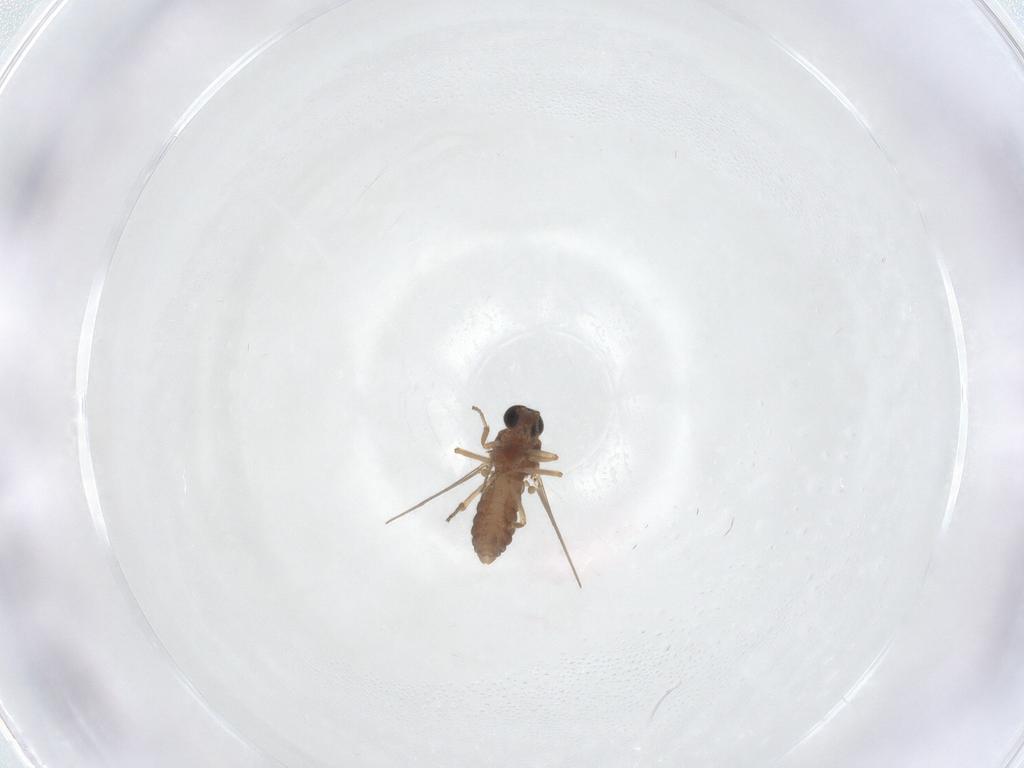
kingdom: Animalia
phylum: Arthropoda
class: Insecta
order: Diptera
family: Ceratopogonidae
